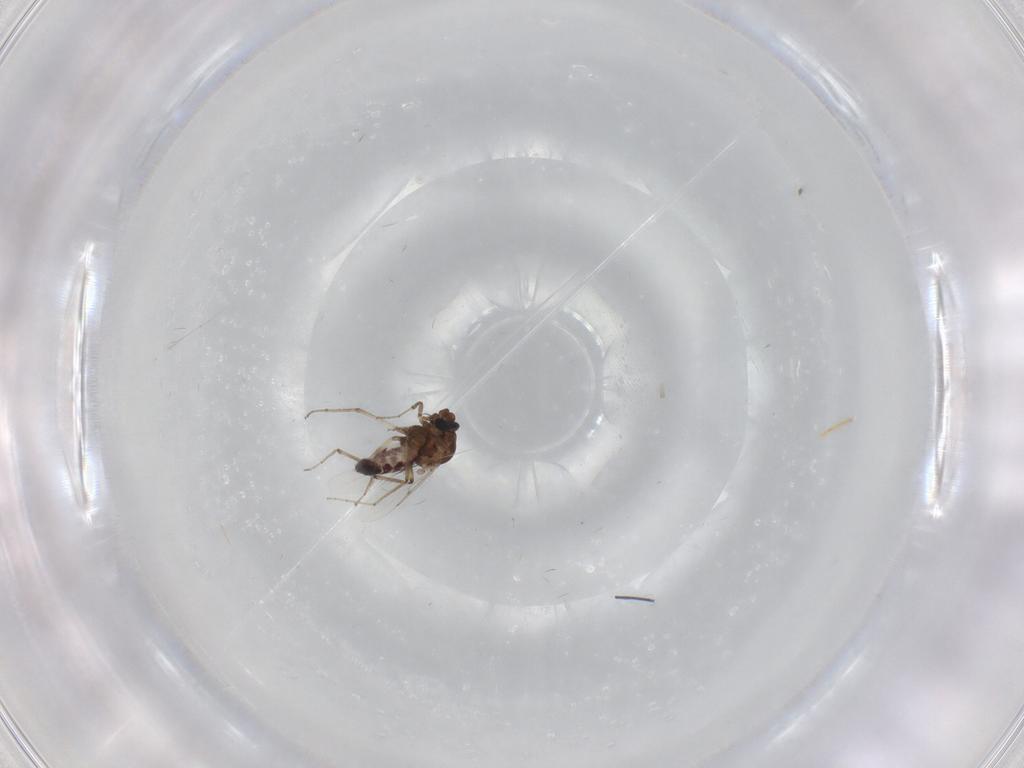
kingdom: Animalia
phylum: Arthropoda
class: Insecta
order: Diptera
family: Ceratopogonidae
